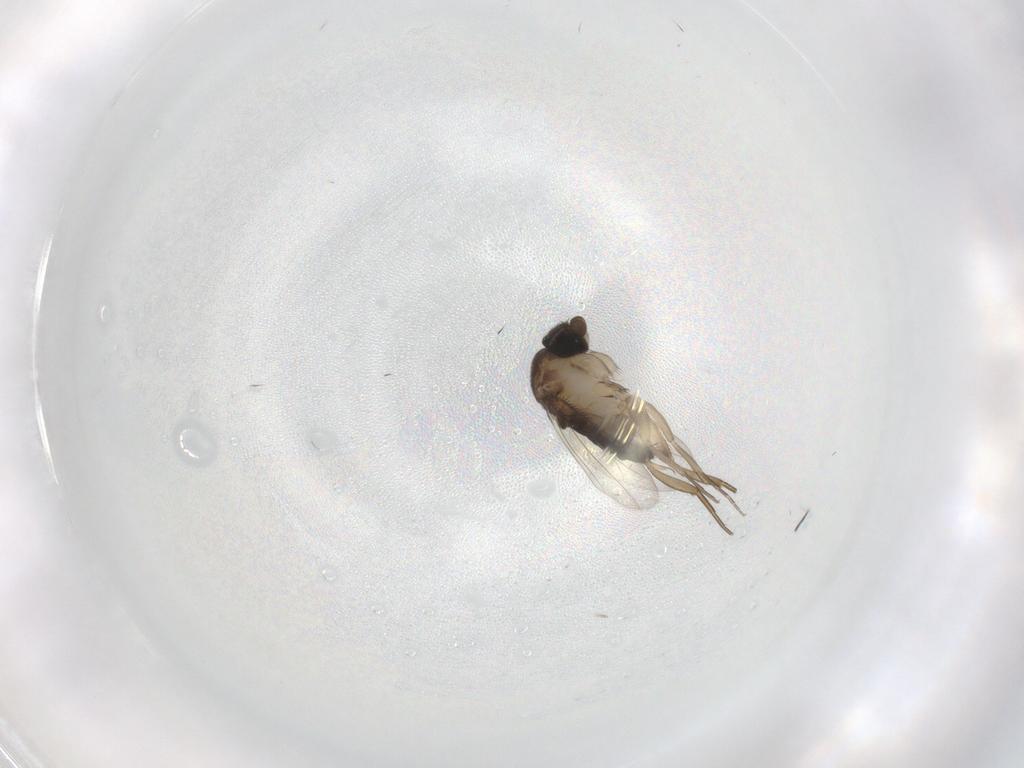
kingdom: Animalia
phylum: Arthropoda
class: Insecta
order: Diptera
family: Phoridae
